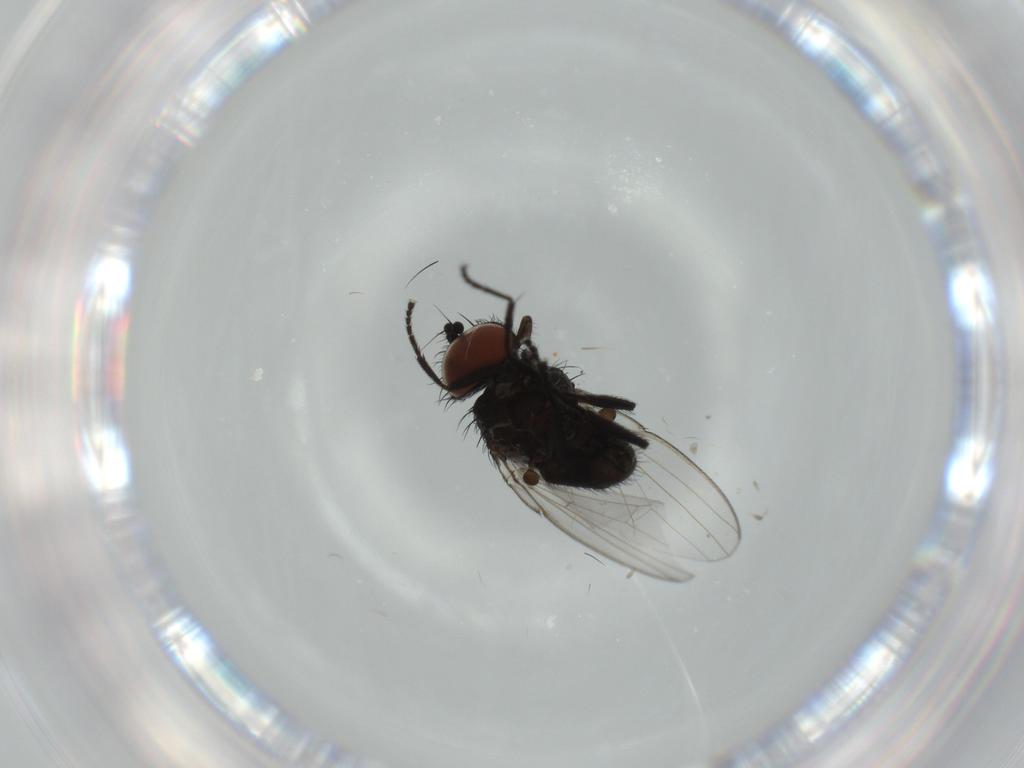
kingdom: Animalia
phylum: Arthropoda
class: Insecta
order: Diptera
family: Milichiidae
